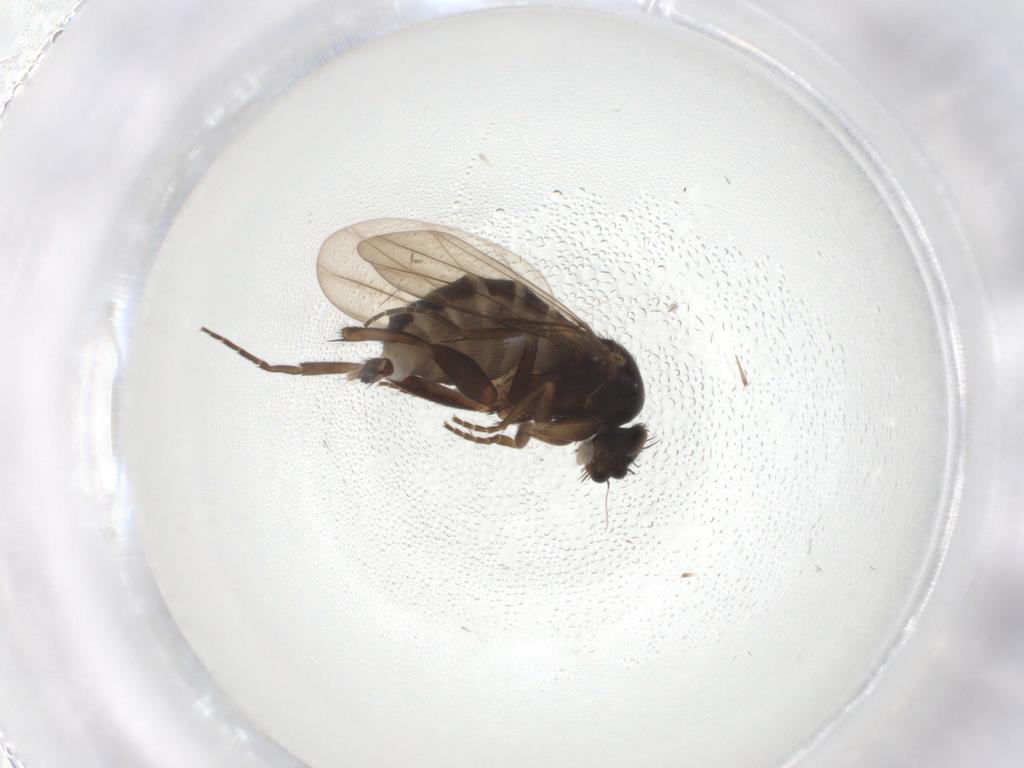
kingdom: Animalia
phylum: Arthropoda
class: Insecta
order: Diptera
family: Phoridae
